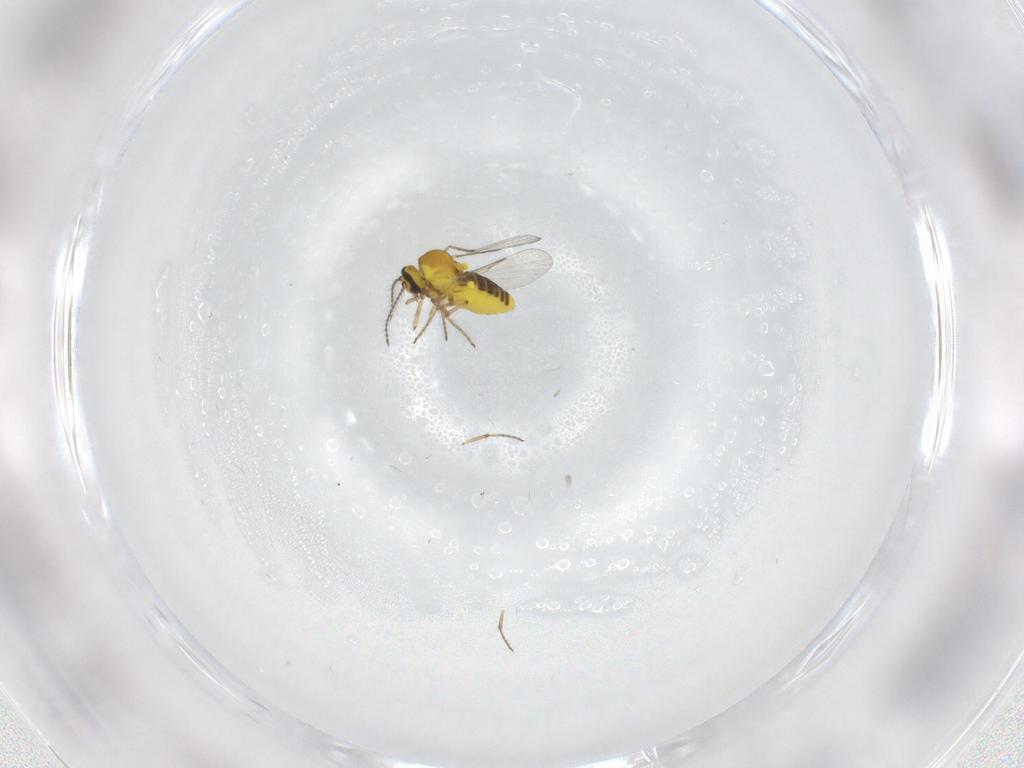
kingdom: Animalia
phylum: Arthropoda
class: Insecta
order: Diptera
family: Ceratopogonidae
